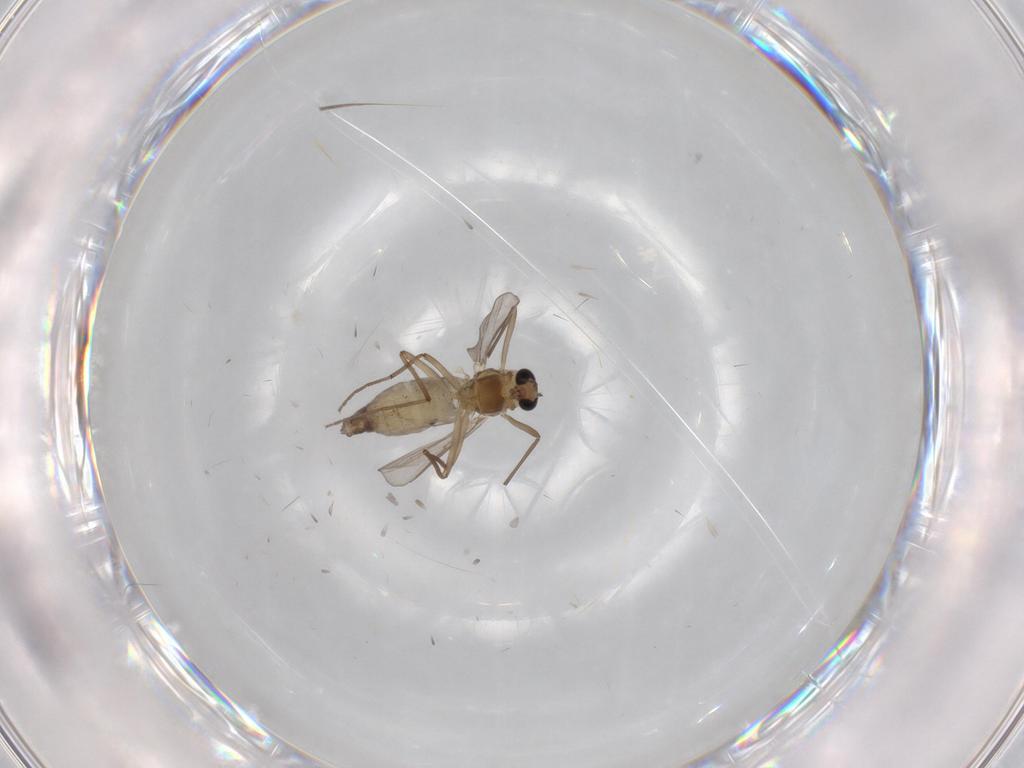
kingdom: Animalia
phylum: Arthropoda
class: Insecta
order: Diptera
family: Chironomidae
